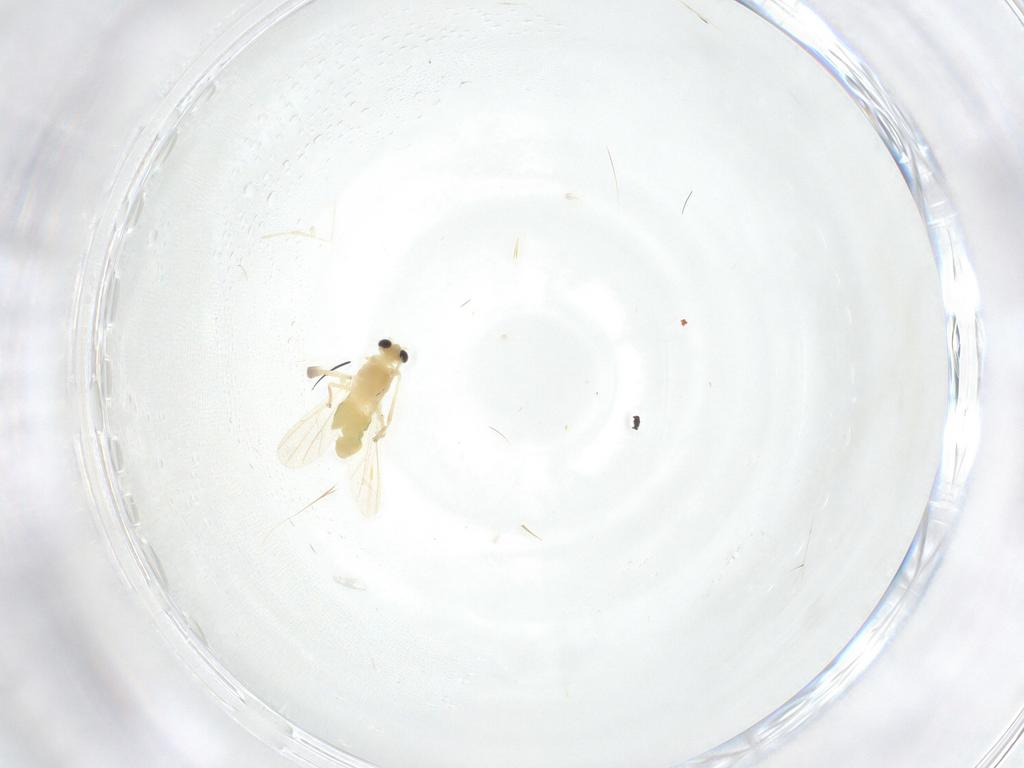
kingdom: Animalia
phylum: Arthropoda
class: Insecta
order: Diptera
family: Chironomidae
